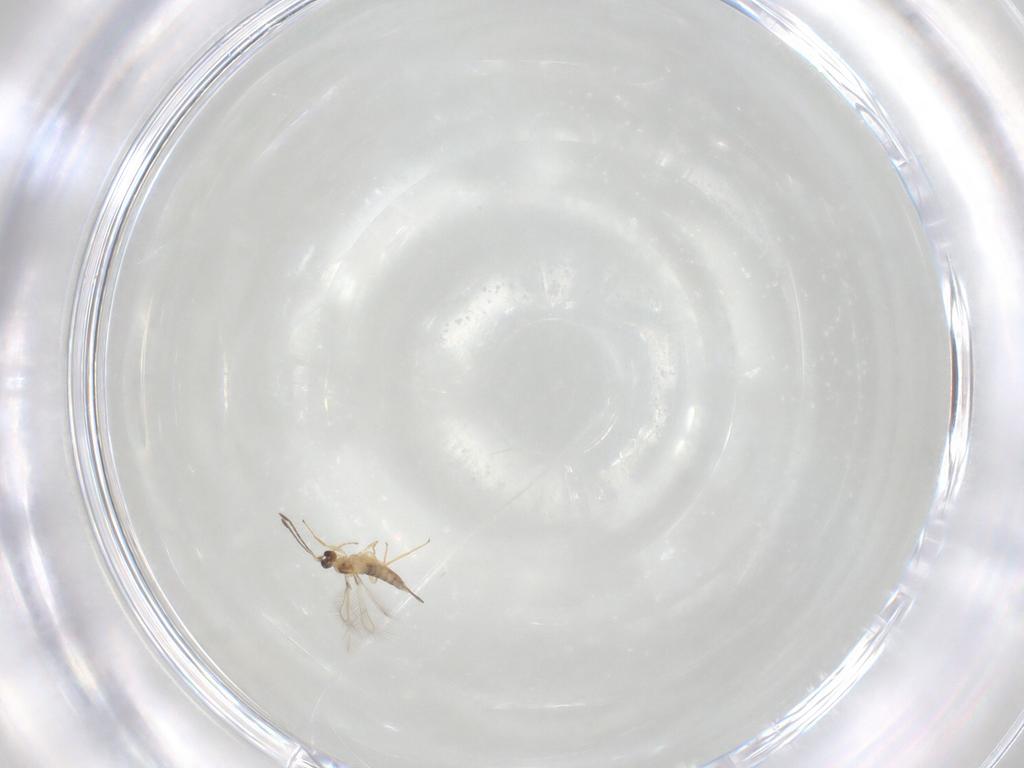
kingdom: Animalia
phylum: Arthropoda
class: Insecta
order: Hymenoptera
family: Mymaridae
